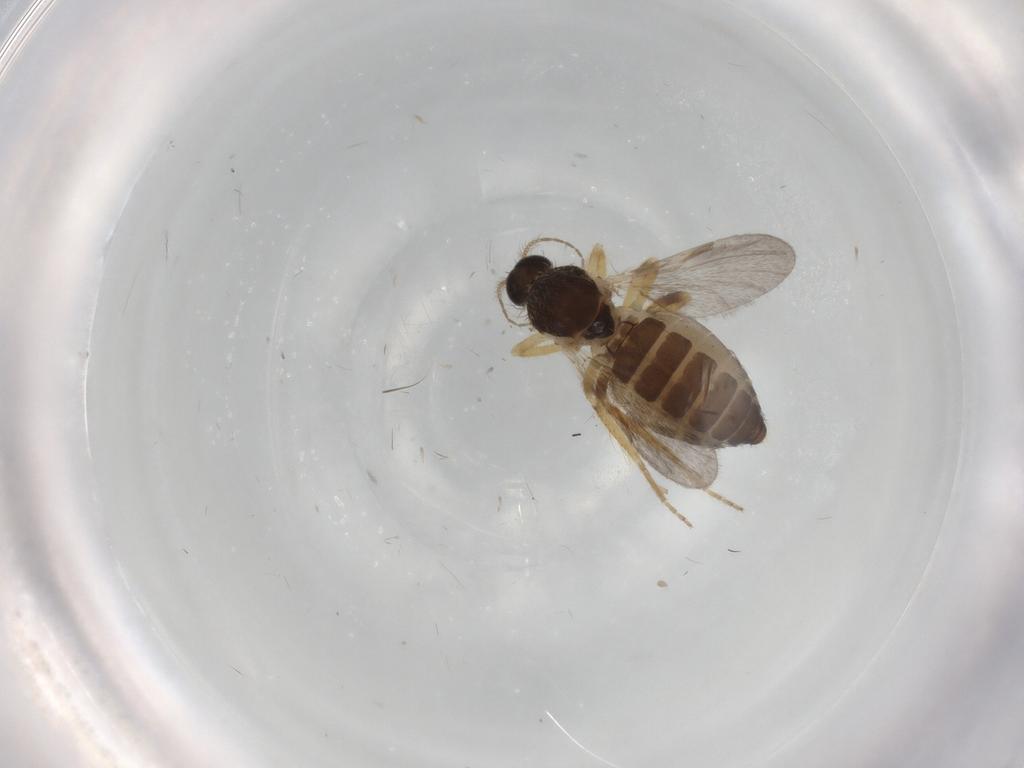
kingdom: Animalia
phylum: Arthropoda
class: Insecta
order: Diptera
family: Ceratopogonidae
